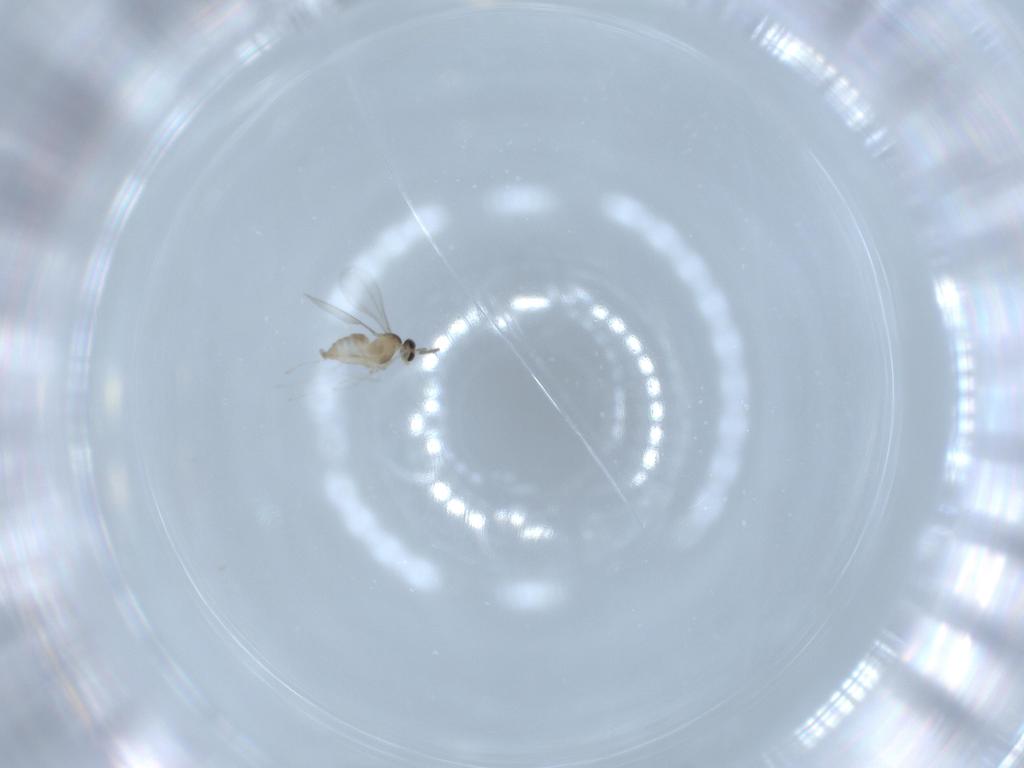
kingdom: Animalia
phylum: Arthropoda
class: Insecta
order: Diptera
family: Cecidomyiidae
